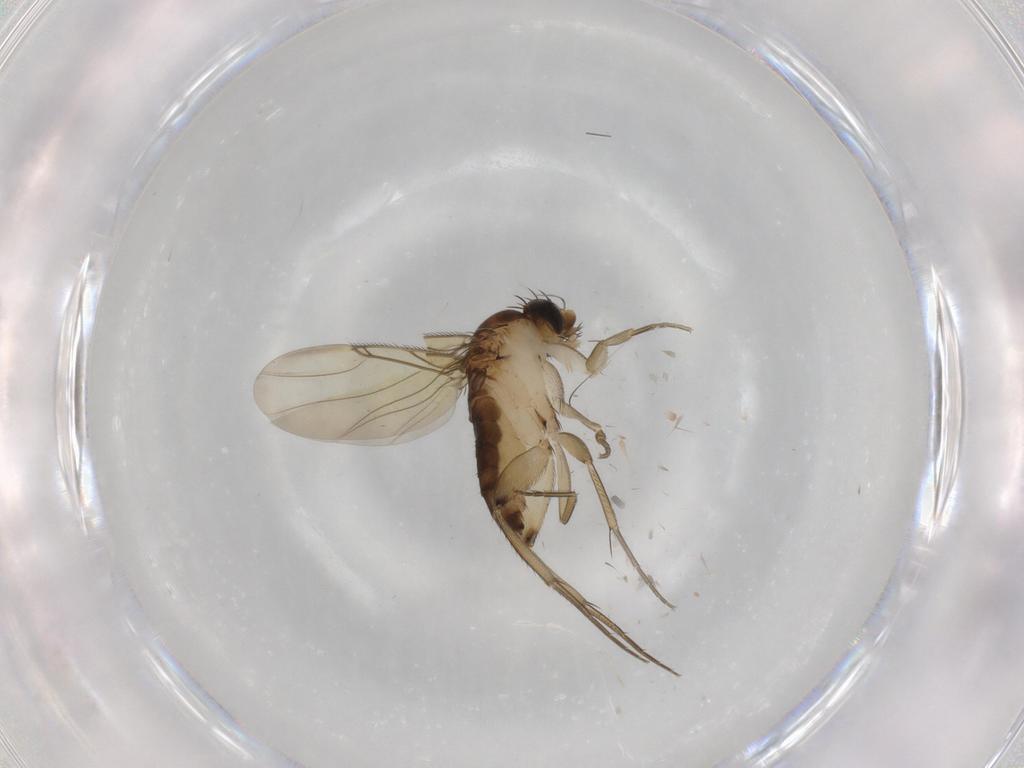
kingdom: Animalia
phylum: Arthropoda
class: Insecta
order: Diptera
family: Phoridae
